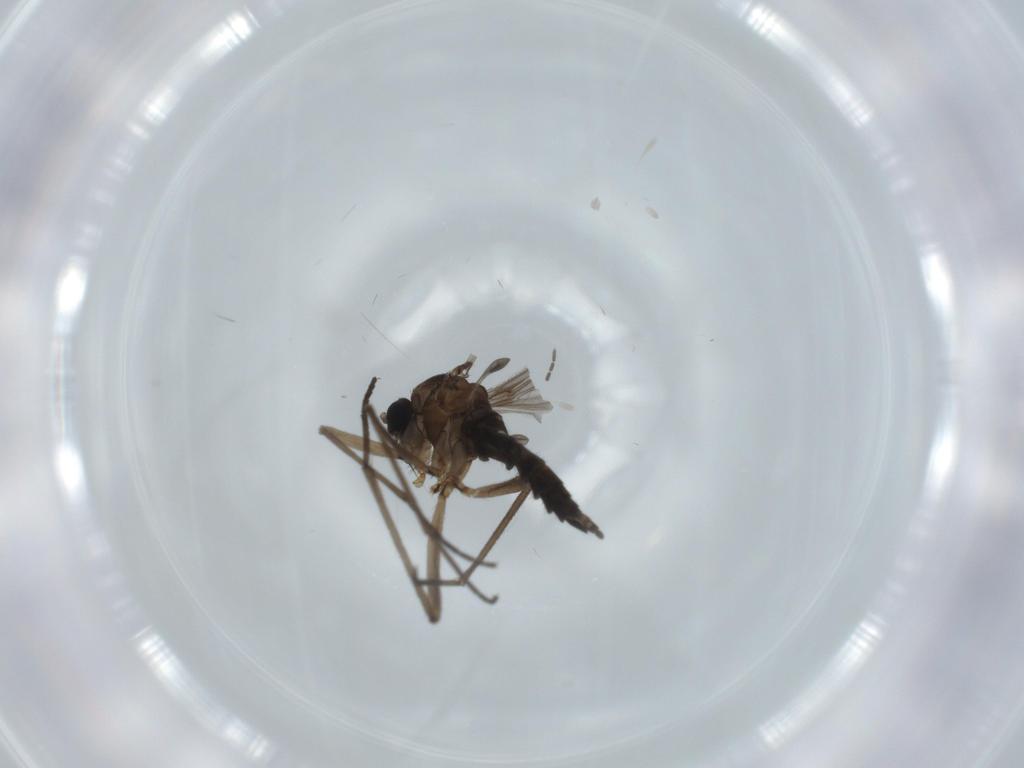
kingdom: Animalia
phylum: Arthropoda
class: Insecta
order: Diptera
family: Sciaridae
